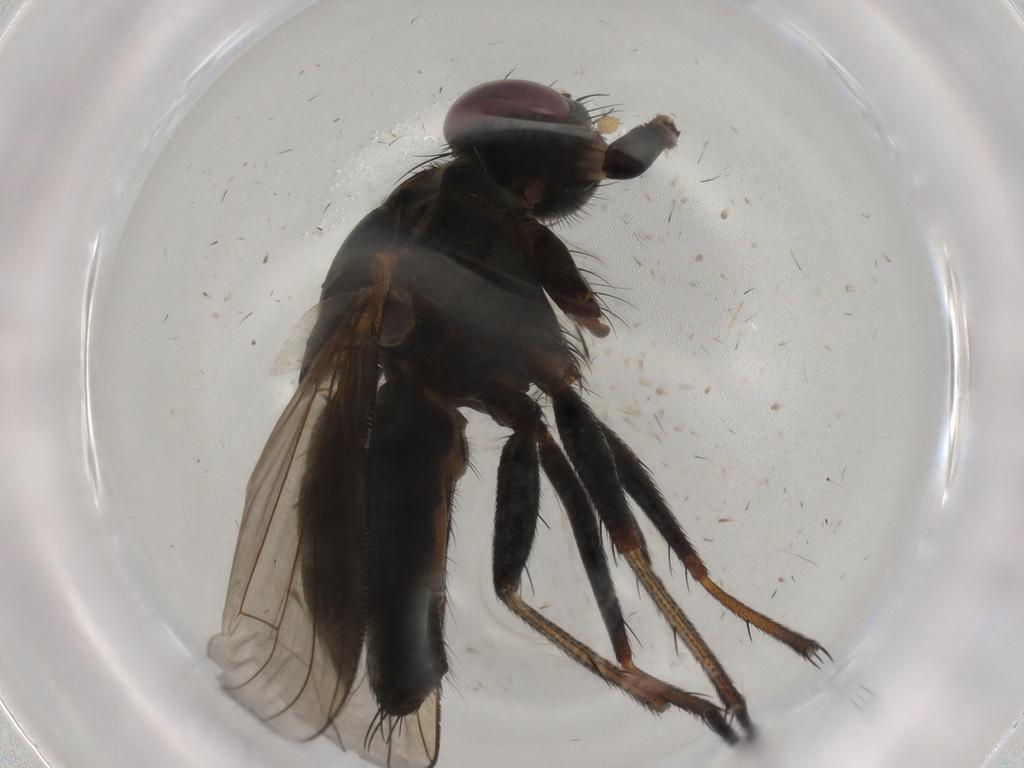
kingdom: Animalia
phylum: Arthropoda
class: Insecta
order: Diptera
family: Muscidae
